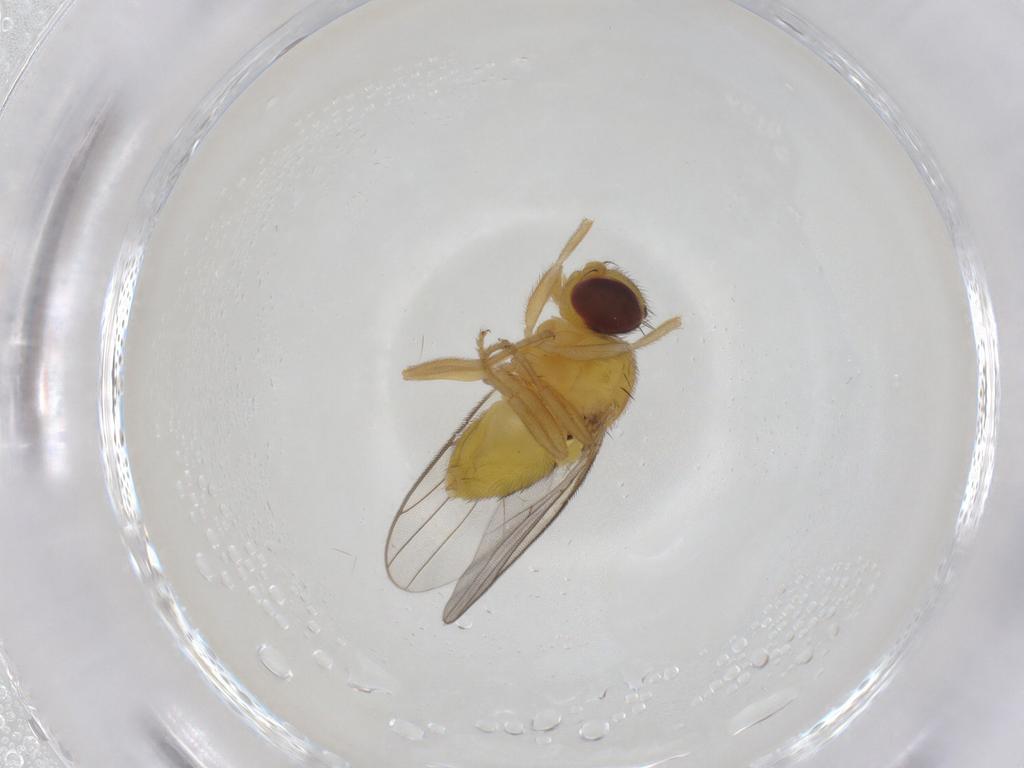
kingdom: Animalia
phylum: Arthropoda
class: Insecta
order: Diptera
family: Chloropidae
